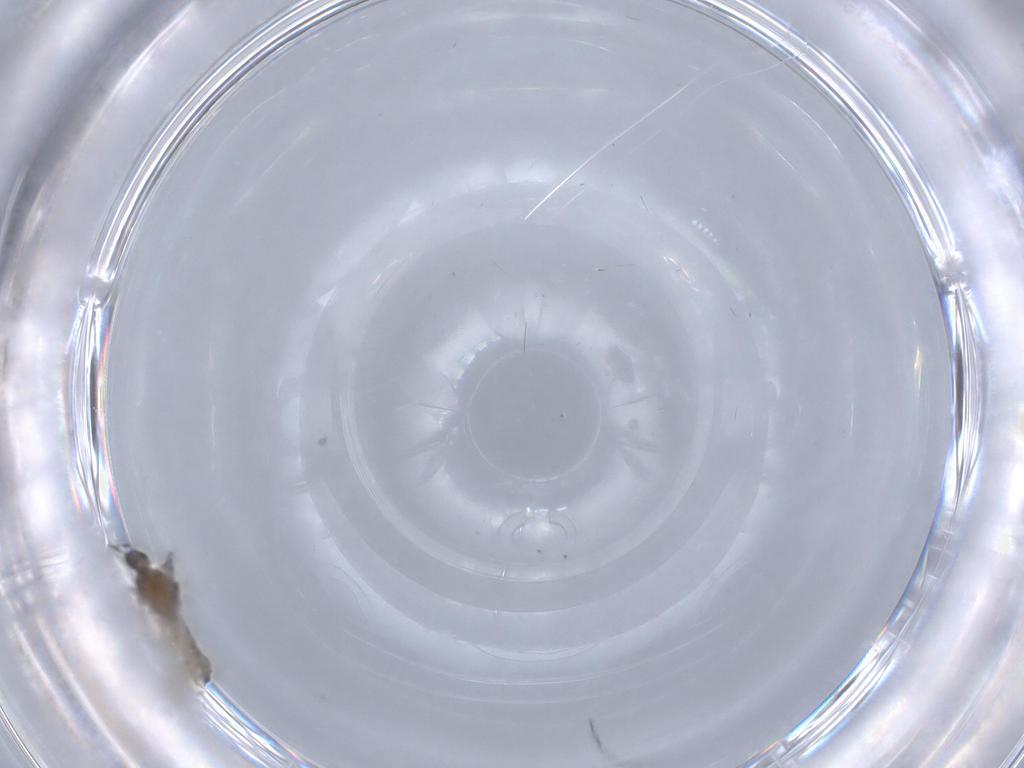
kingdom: Animalia
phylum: Arthropoda
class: Insecta
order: Diptera
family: Cecidomyiidae
